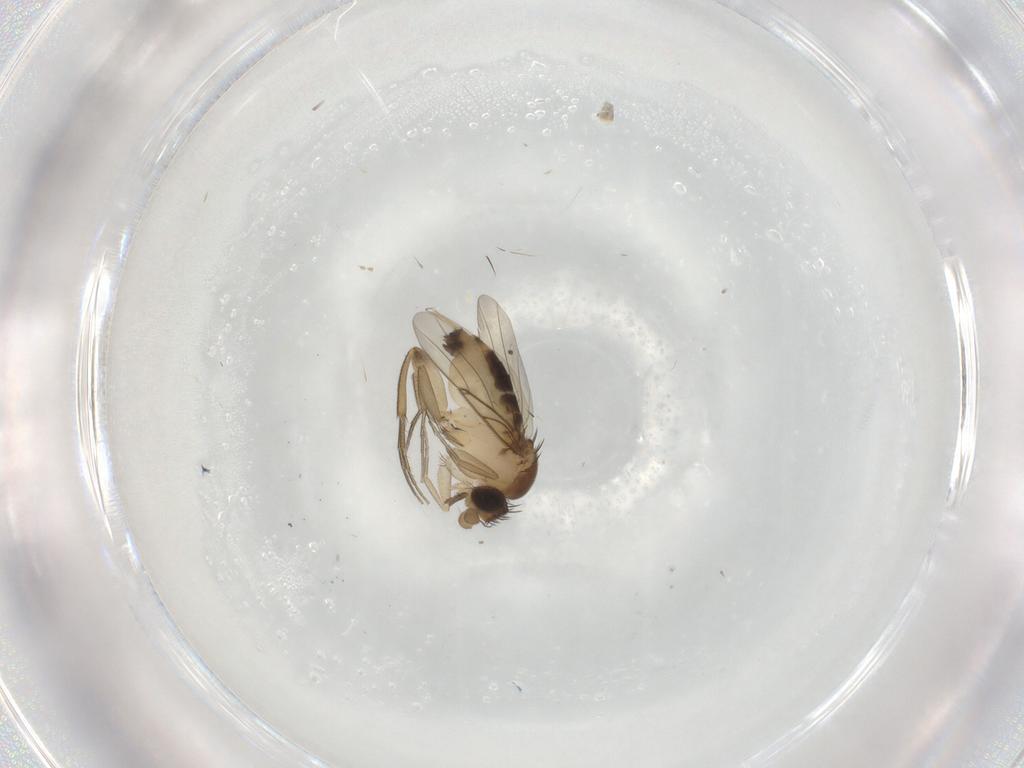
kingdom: Animalia
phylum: Arthropoda
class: Insecta
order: Diptera
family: Phoridae
